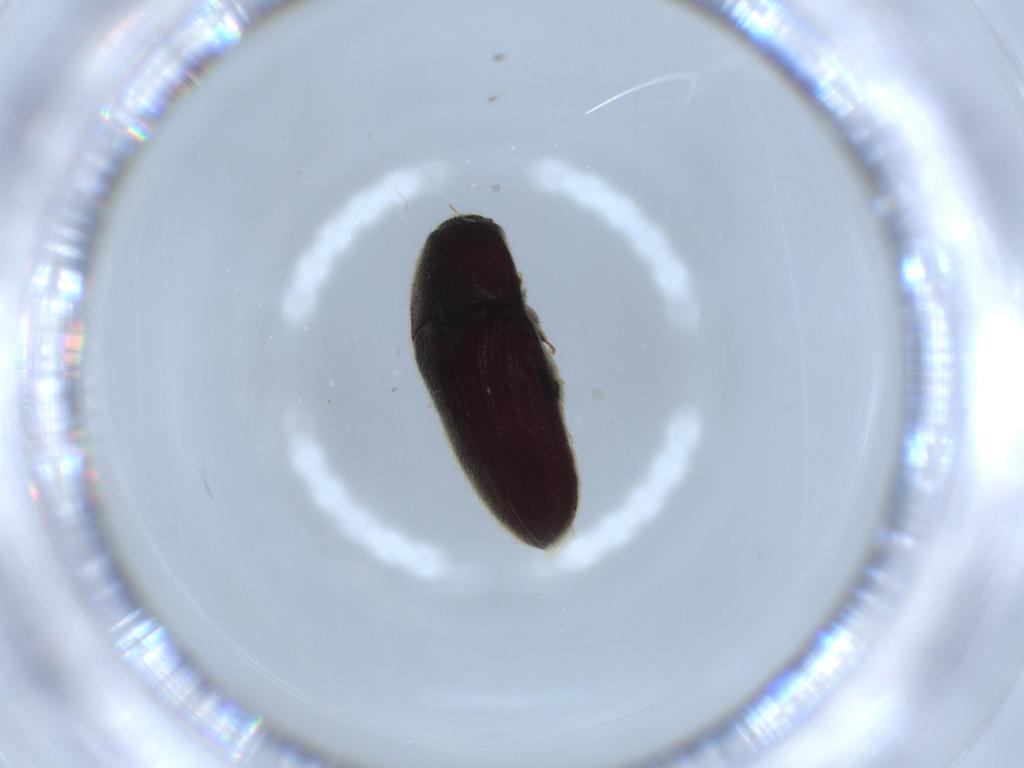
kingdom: Animalia
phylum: Arthropoda
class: Insecta
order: Coleoptera
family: Throscidae
